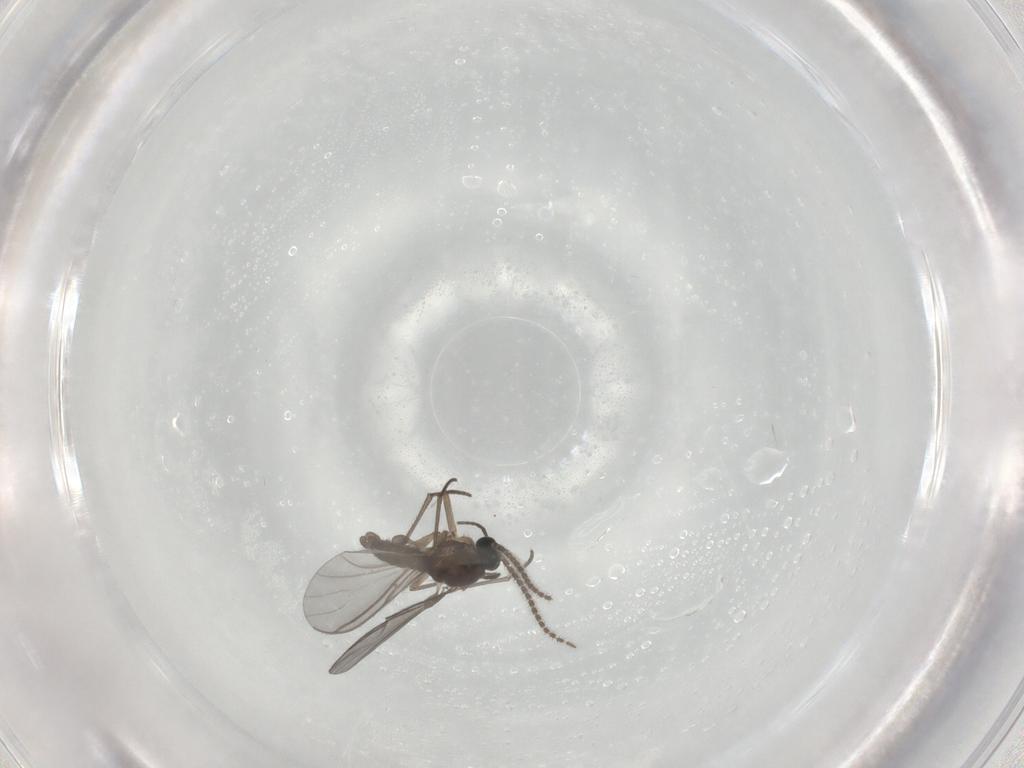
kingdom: Animalia
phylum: Arthropoda
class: Insecta
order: Diptera
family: Sciaridae
